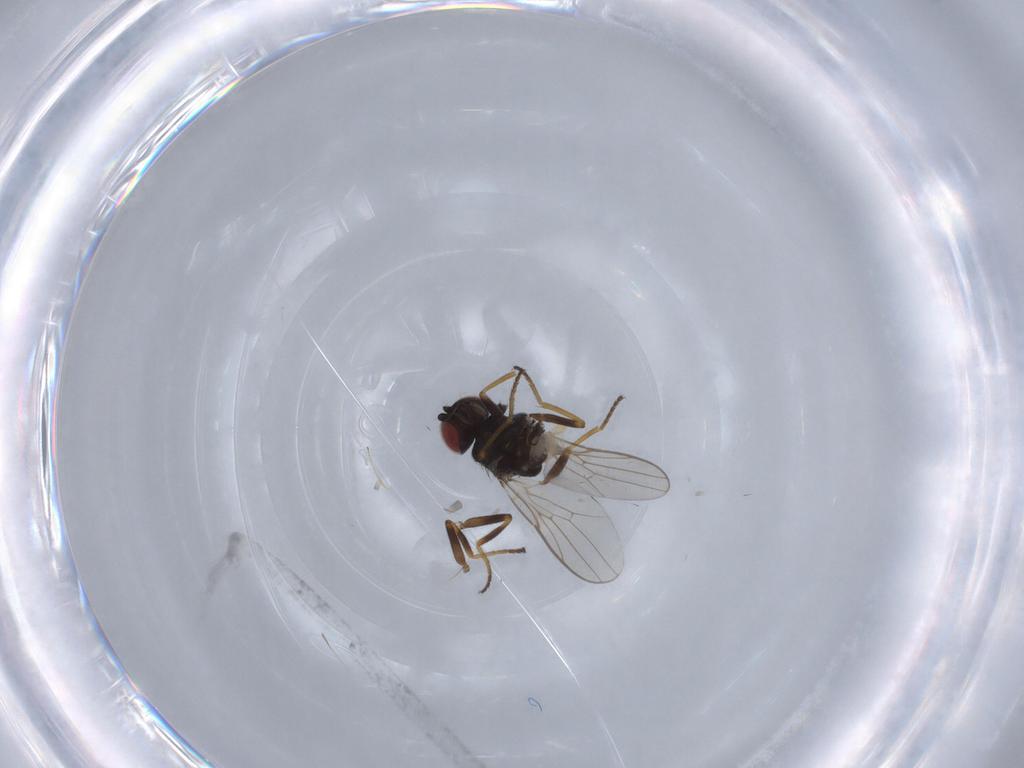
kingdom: Animalia
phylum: Arthropoda
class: Insecta
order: Diptera
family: Chloropidae
